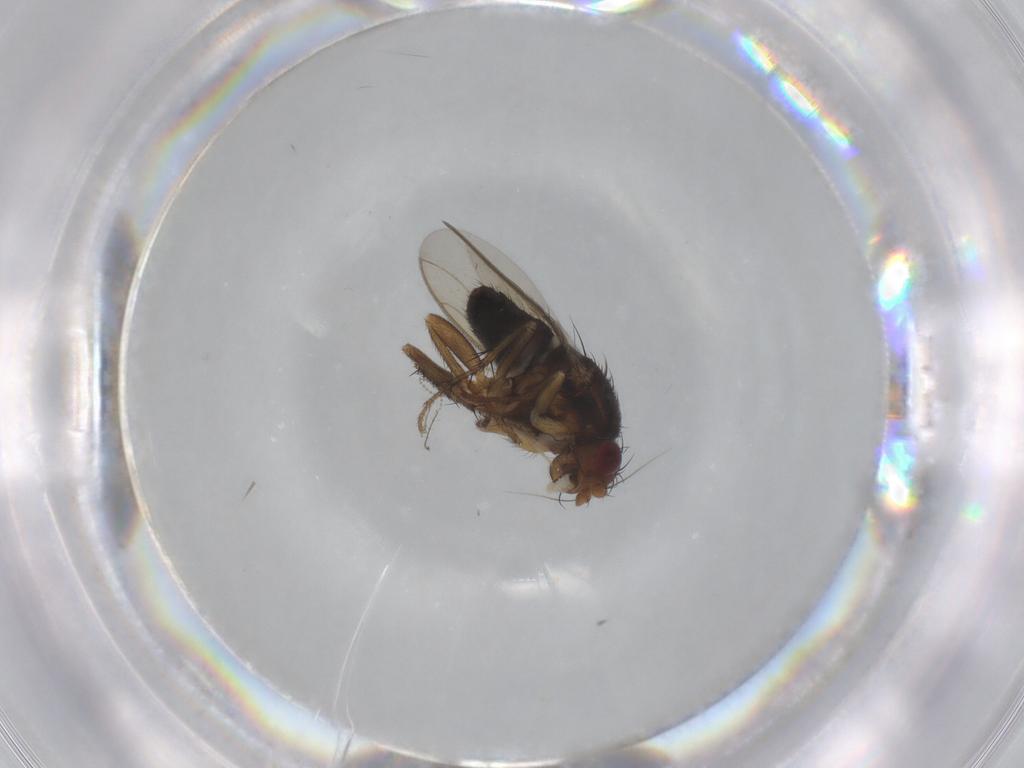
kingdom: Animalia
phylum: Arthropoda
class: Insecta
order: Diptera
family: Sphaeroceridae
